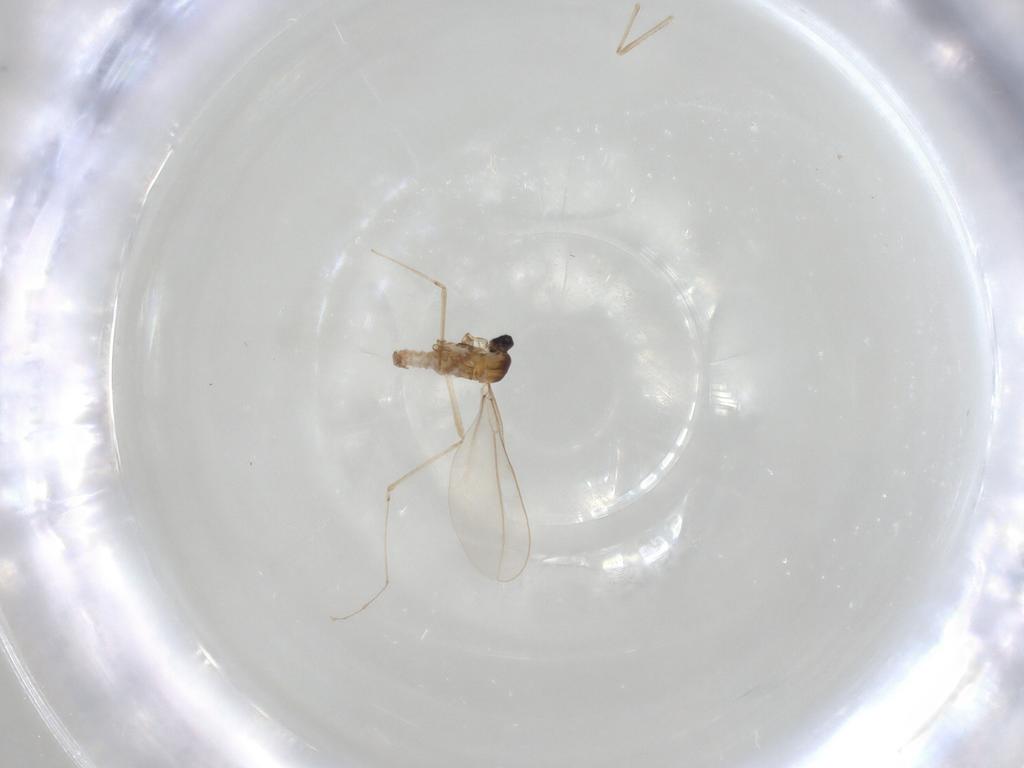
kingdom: Animalia
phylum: Arthropoda
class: Insecta
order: Diptera
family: Cecidomyiidae
